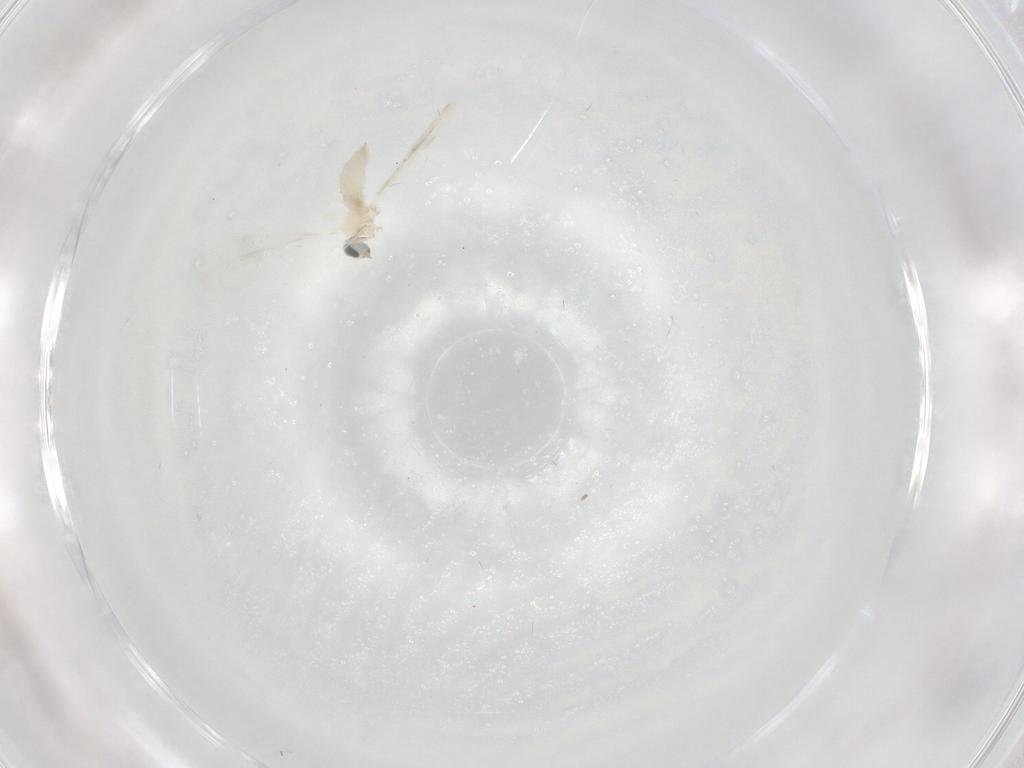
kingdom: Animalia
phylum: Arthropoda
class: Insecta
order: Diptera
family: Cecidomyiidae
